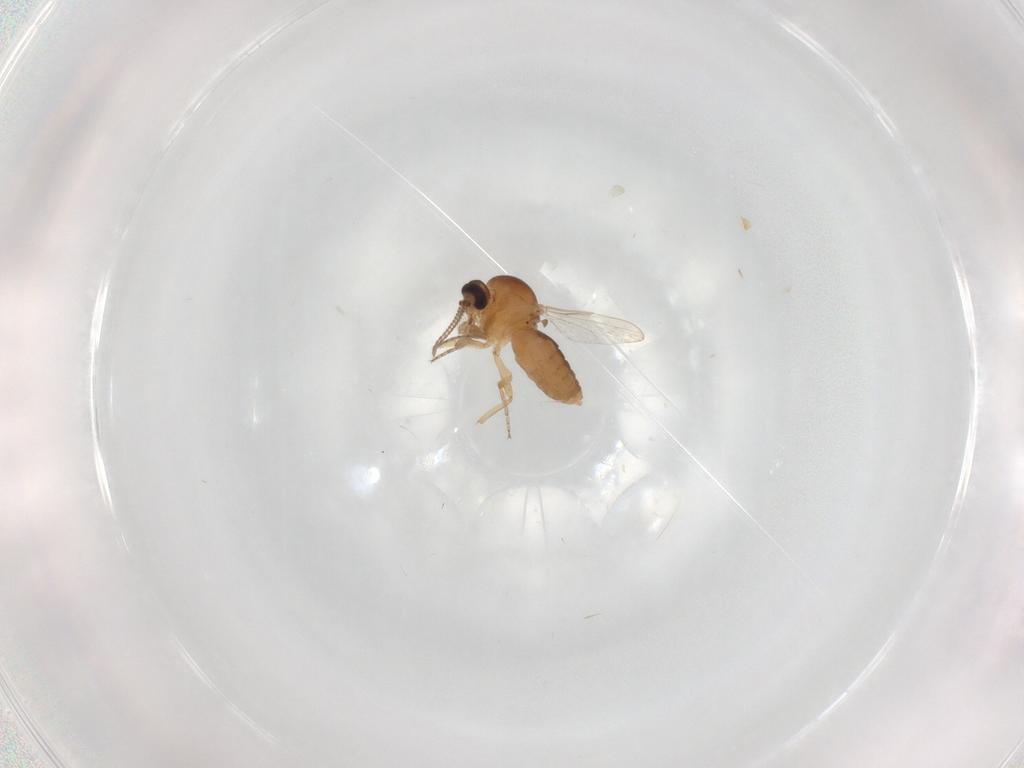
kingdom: Animalia
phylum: Arthropoda
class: Insecta
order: Diptera
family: Ceratopogonidae
